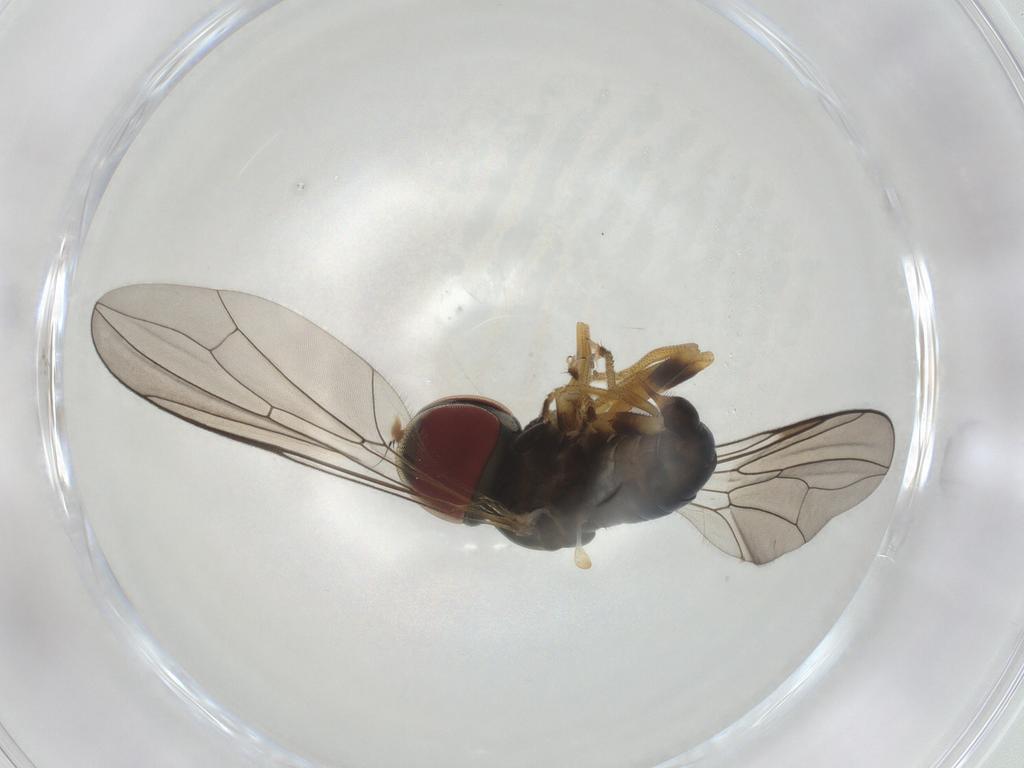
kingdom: Animalia
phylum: Arthropoda
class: Insecta
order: Diptera
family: Pipunculidae
